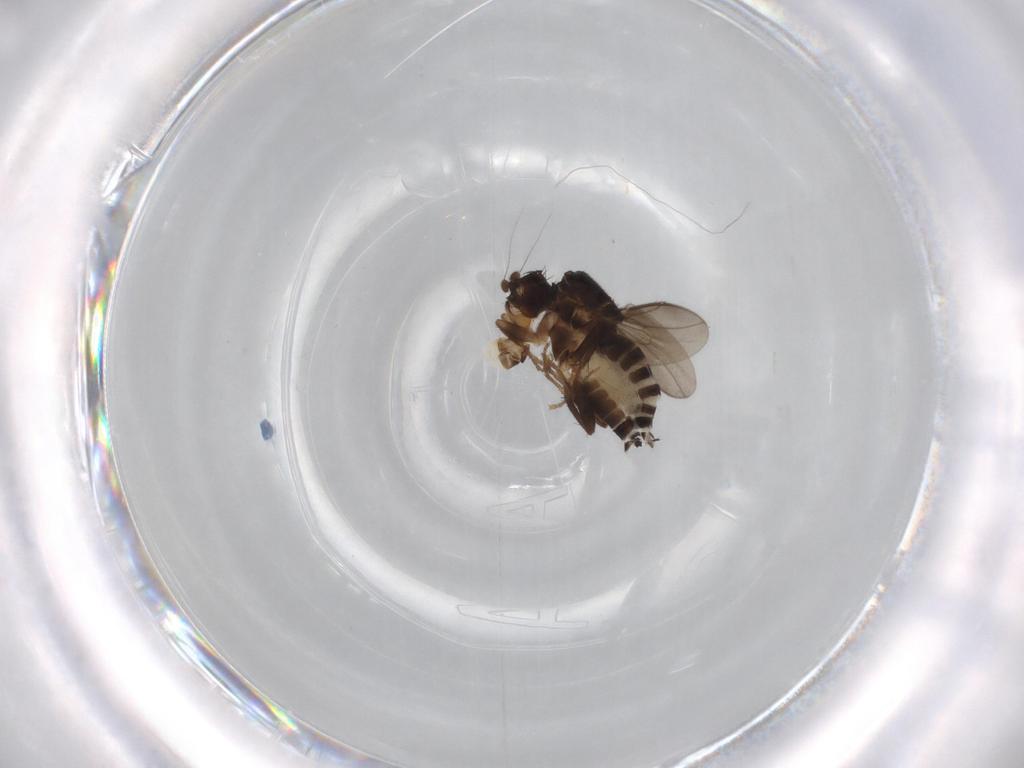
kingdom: Animalia
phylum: Arthropoda
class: Insecta
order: Diptera
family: Sphaeroceridae
